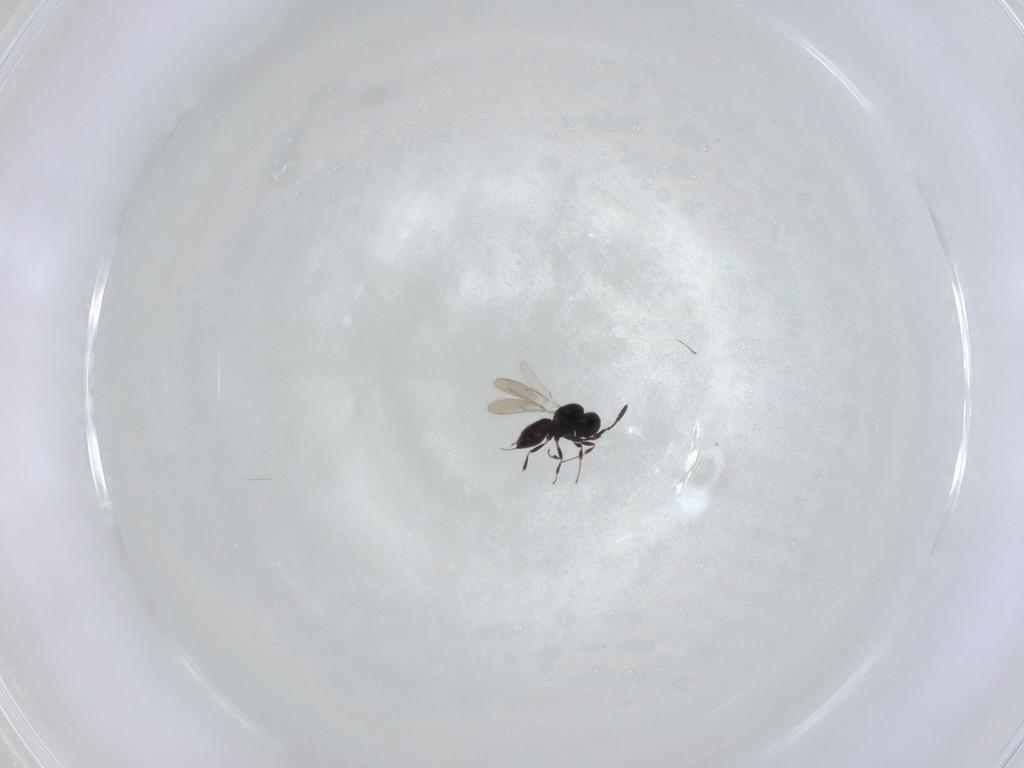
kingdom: Animalia
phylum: Arthropoda
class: Insecta
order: Hymenoptera
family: Scelionidae
